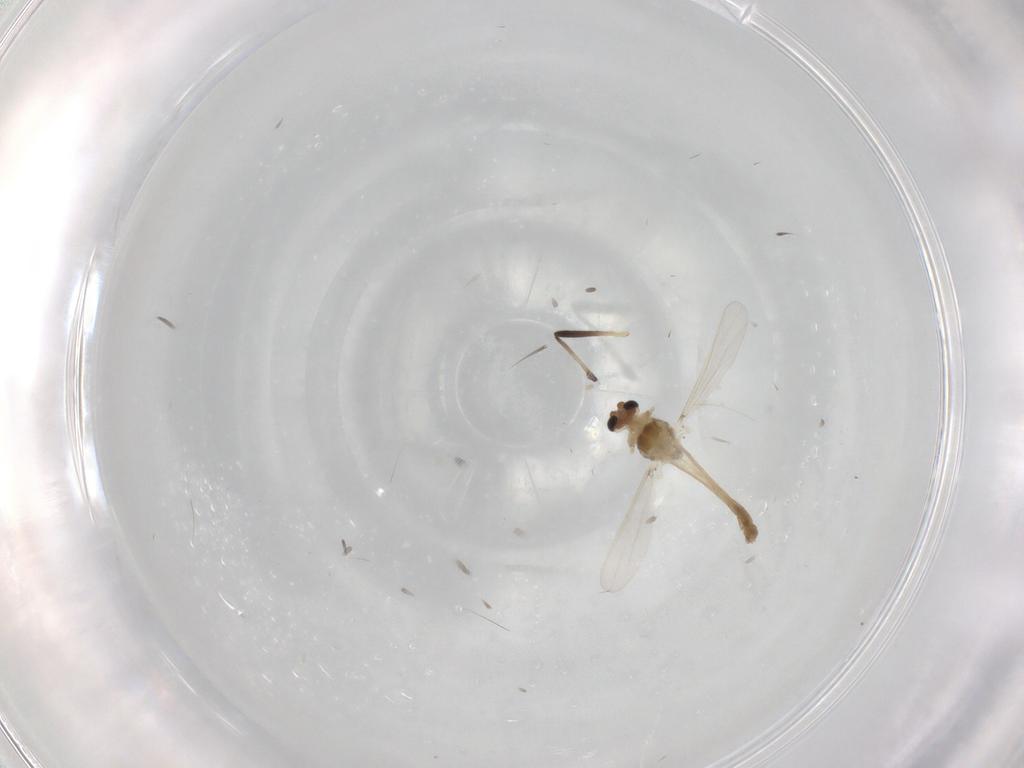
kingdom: Animalia
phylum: Arthropoda
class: Insecta
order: Diptera
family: Chironomidae
